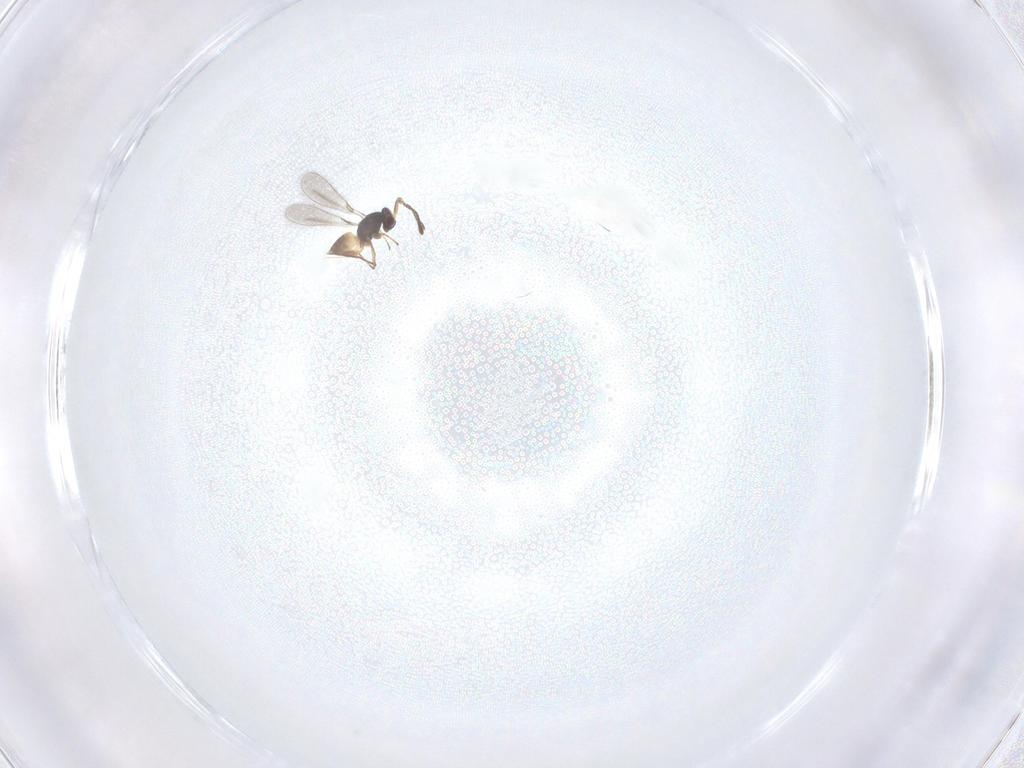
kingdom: Animalia
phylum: Arthropoda
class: Insecta
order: Hymenoptera
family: Mymaridae
